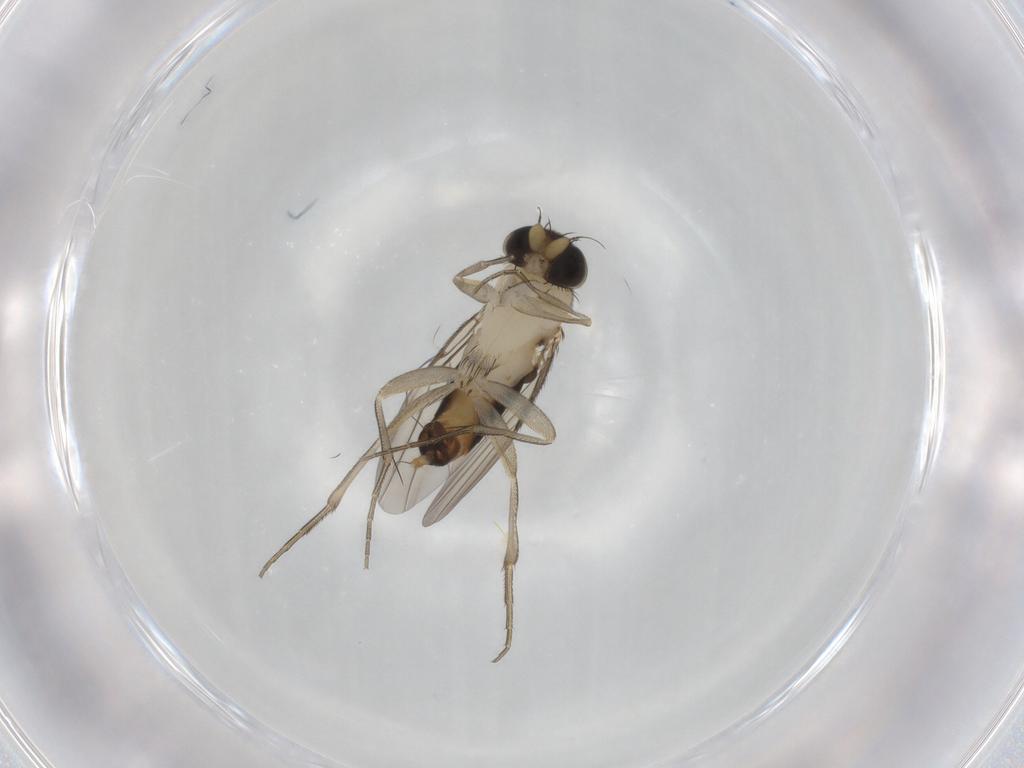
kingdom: Animalia
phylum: Arthropoda
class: Insecta
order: Diptera
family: Phoridae
